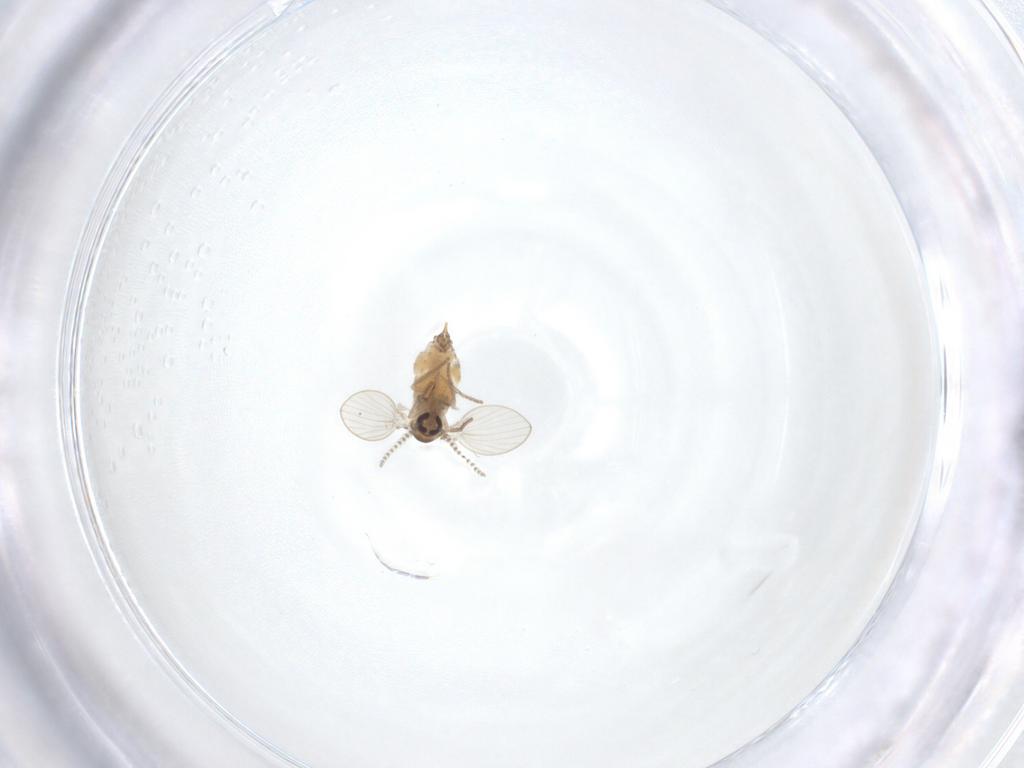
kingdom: Animalia
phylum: Arthropoda
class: Insecta
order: Diptera
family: Psychodidae
